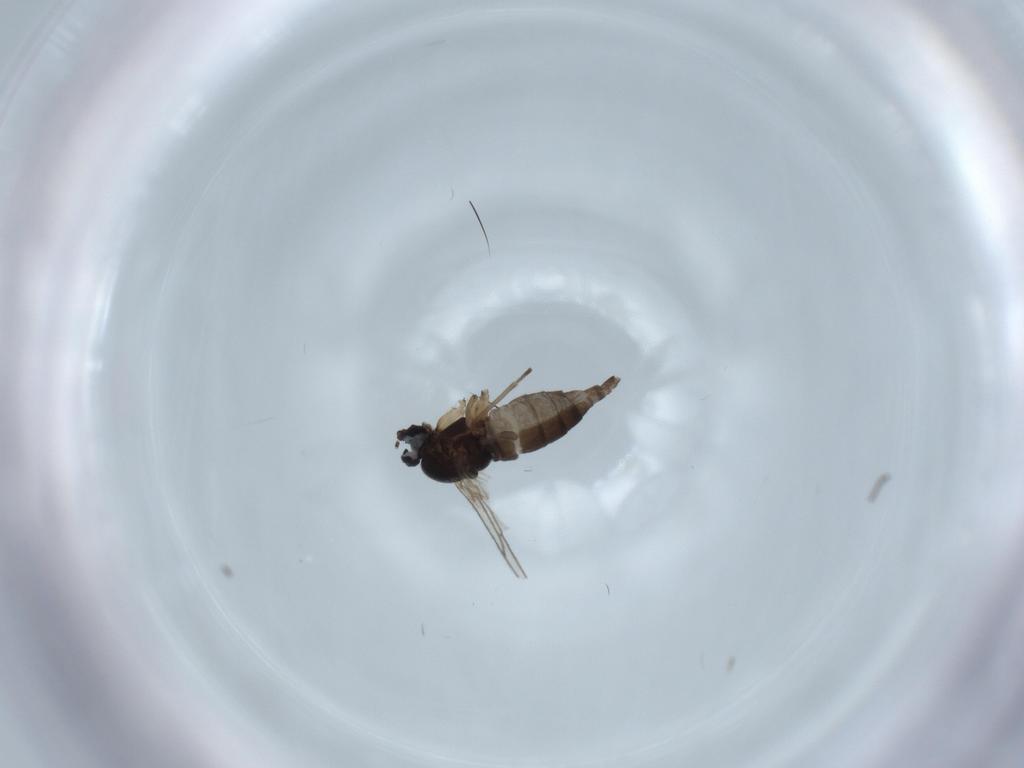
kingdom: Animalia
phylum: Arthropoda
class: Insecta
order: Diptera
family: Sciaridae
